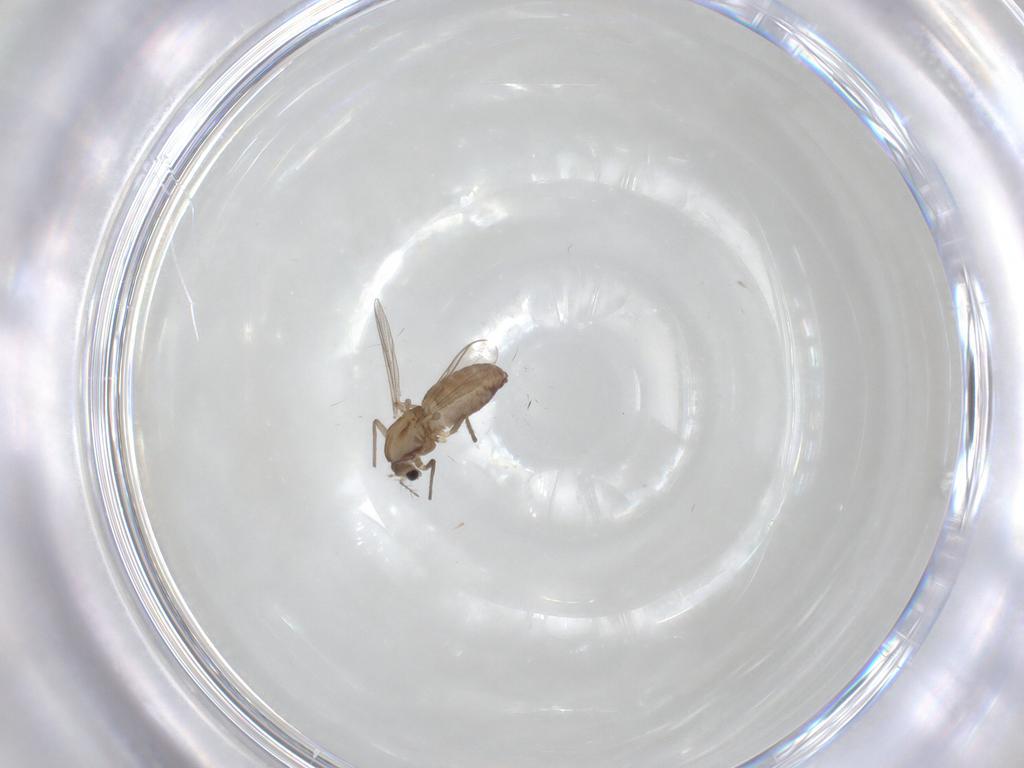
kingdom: Animalia
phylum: Arthropoda
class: Insecta
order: Diptera
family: Chironomidae
